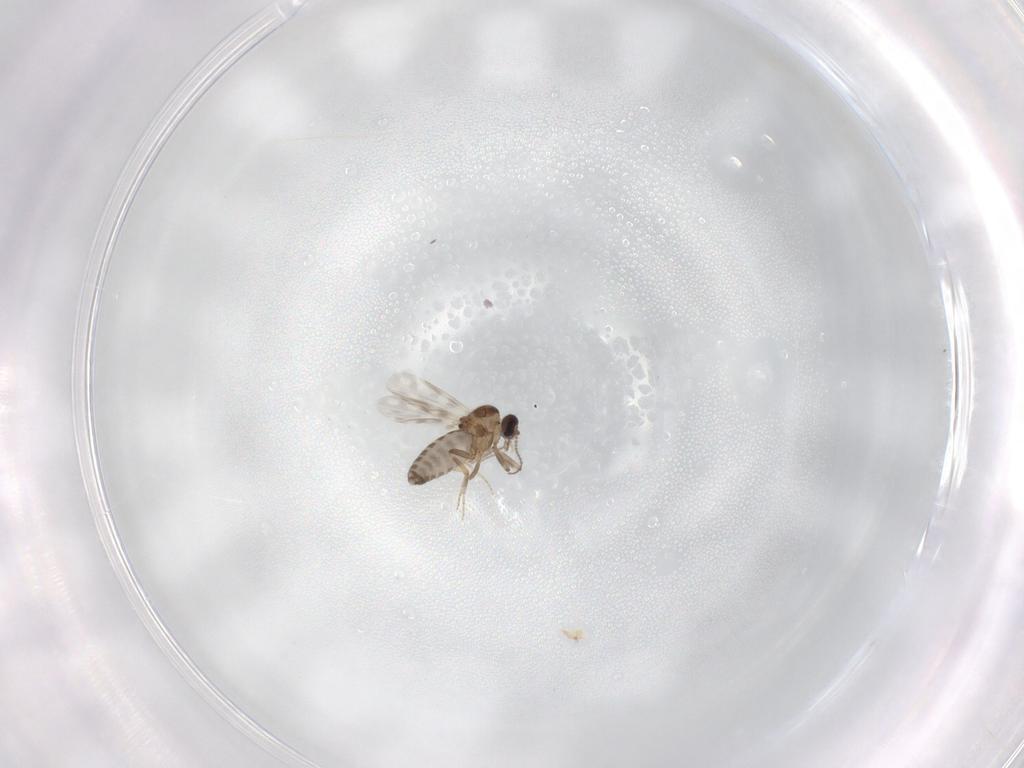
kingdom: Animalia
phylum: Arthropoda
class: Insecta
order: Diptera
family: Ceratopogonidae
